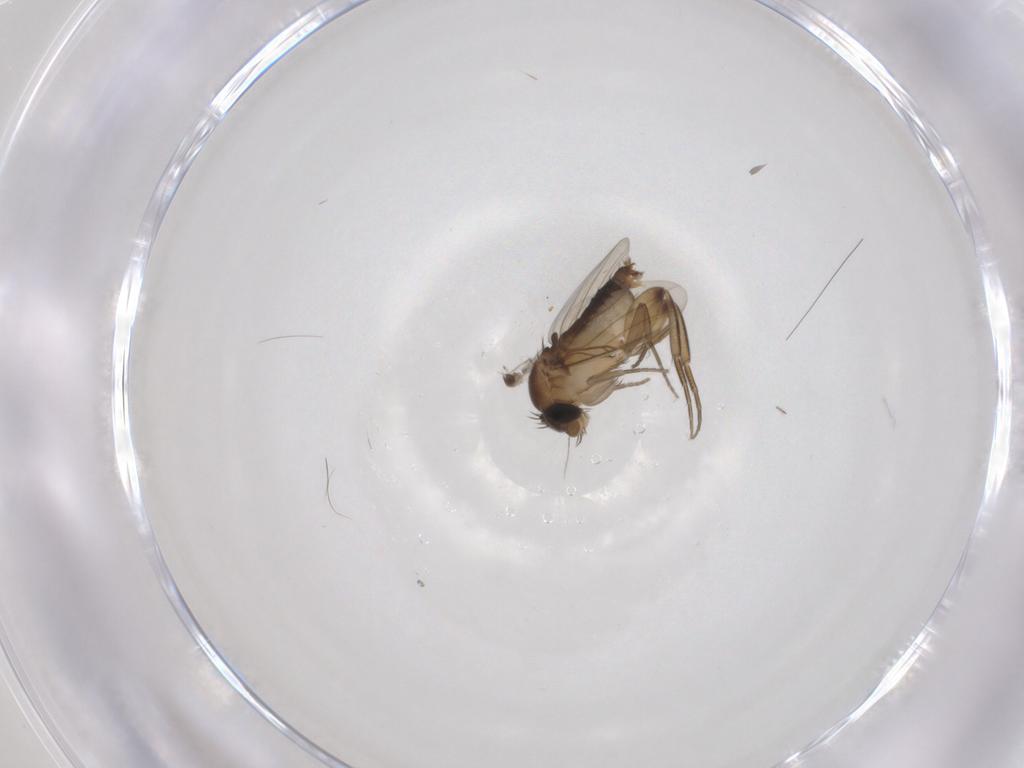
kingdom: Animalia
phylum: Arthropoda
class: Insecta
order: Diptera
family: Phoridae
